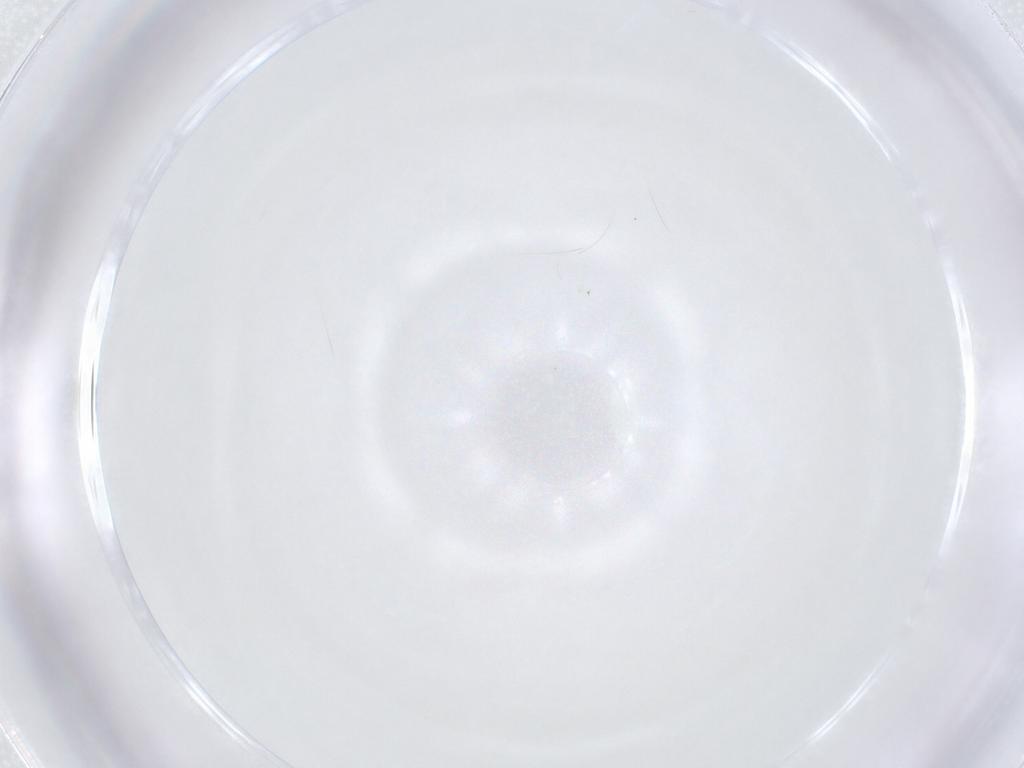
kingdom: Animalia
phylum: Arthropoda
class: Insecta
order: Hymenoptera
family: Mymaridae
